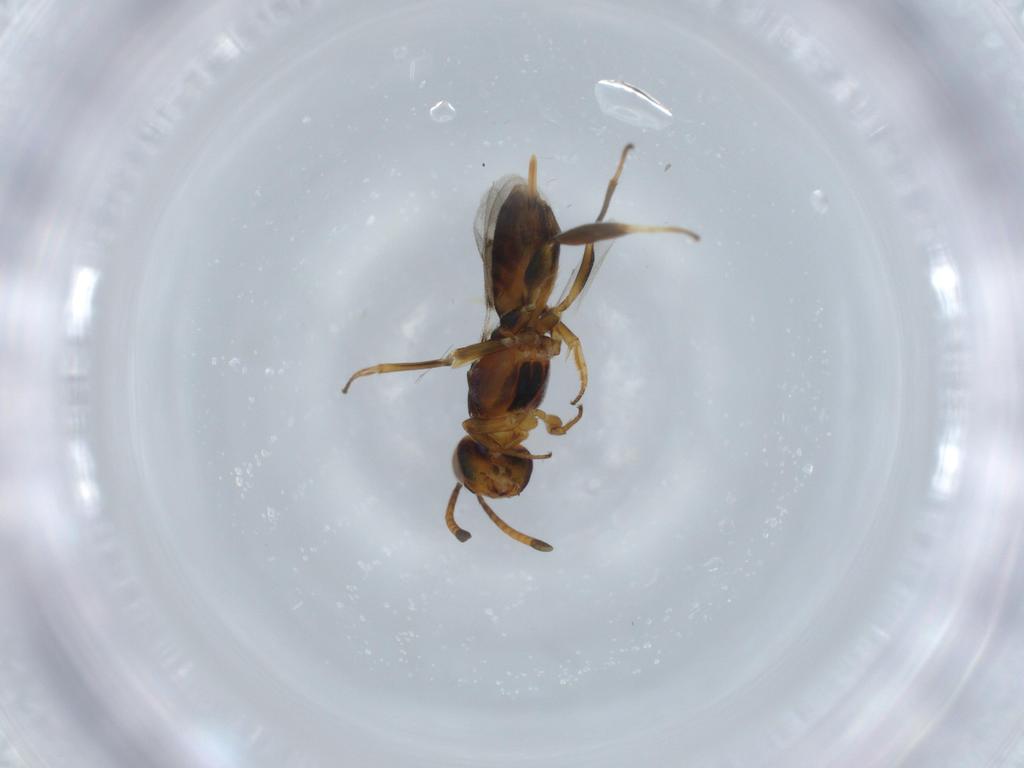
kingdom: Animalia
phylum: Arthropoda
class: Insecta
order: Hymenoptera
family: Eupelmidae
